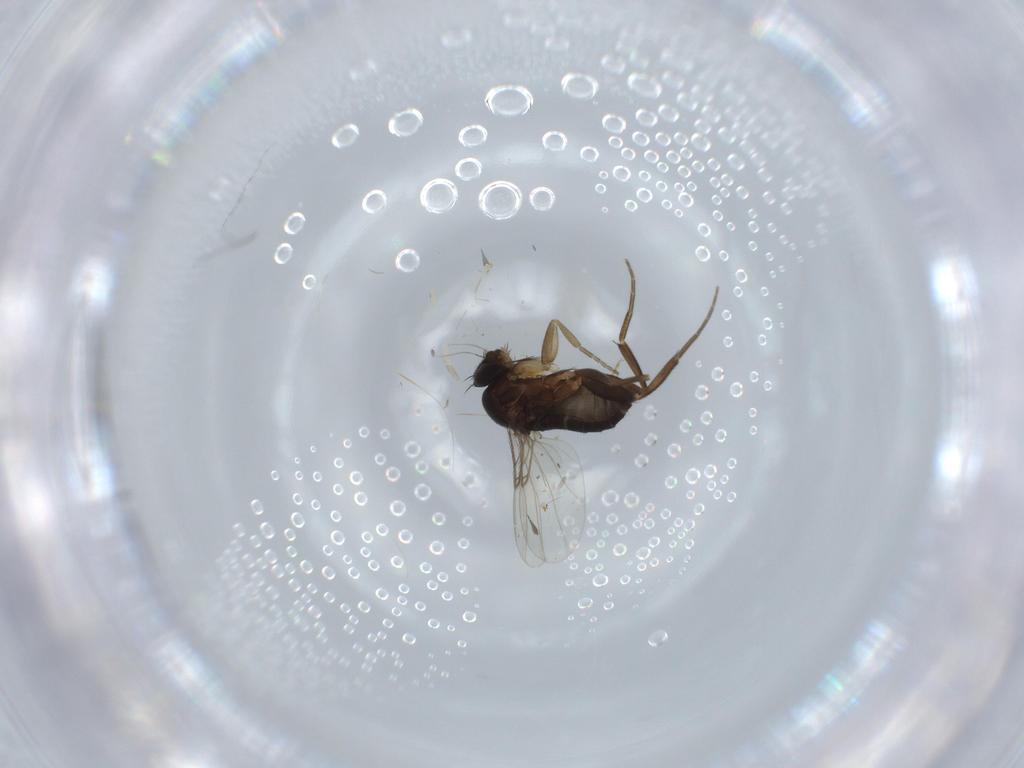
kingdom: Animalia
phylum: Arthropoda
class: Insecta
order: Diptera
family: Phoridae
